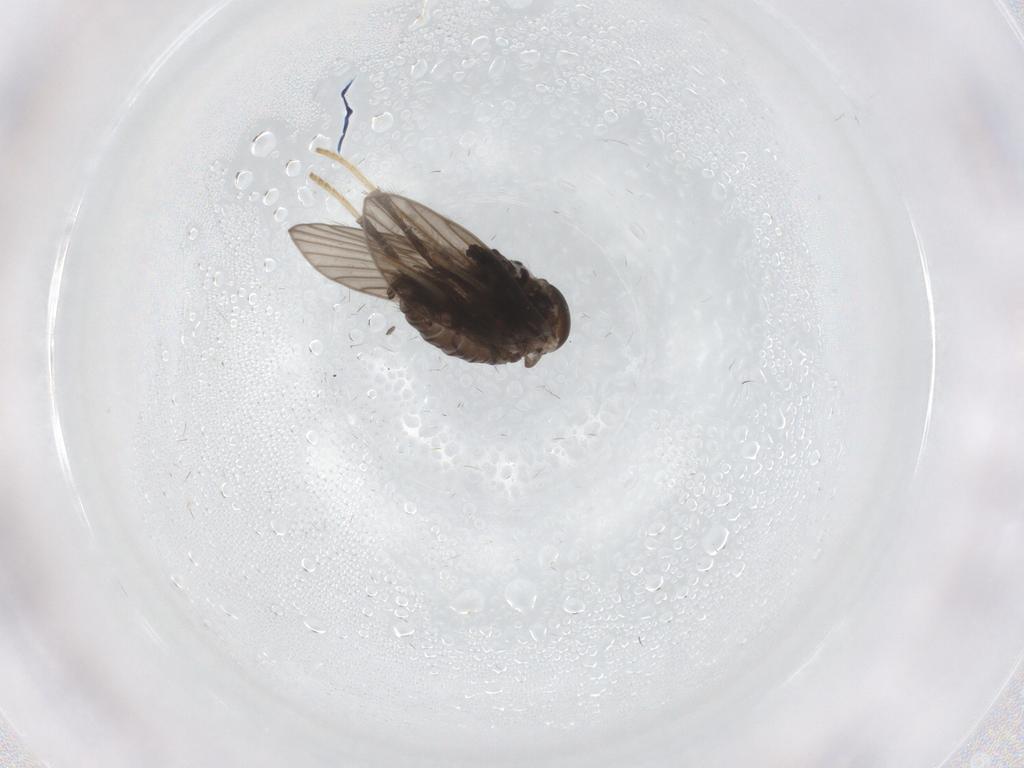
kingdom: Animalia
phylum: Arthropoda
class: Insecta
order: Diptera
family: Psychodidae
